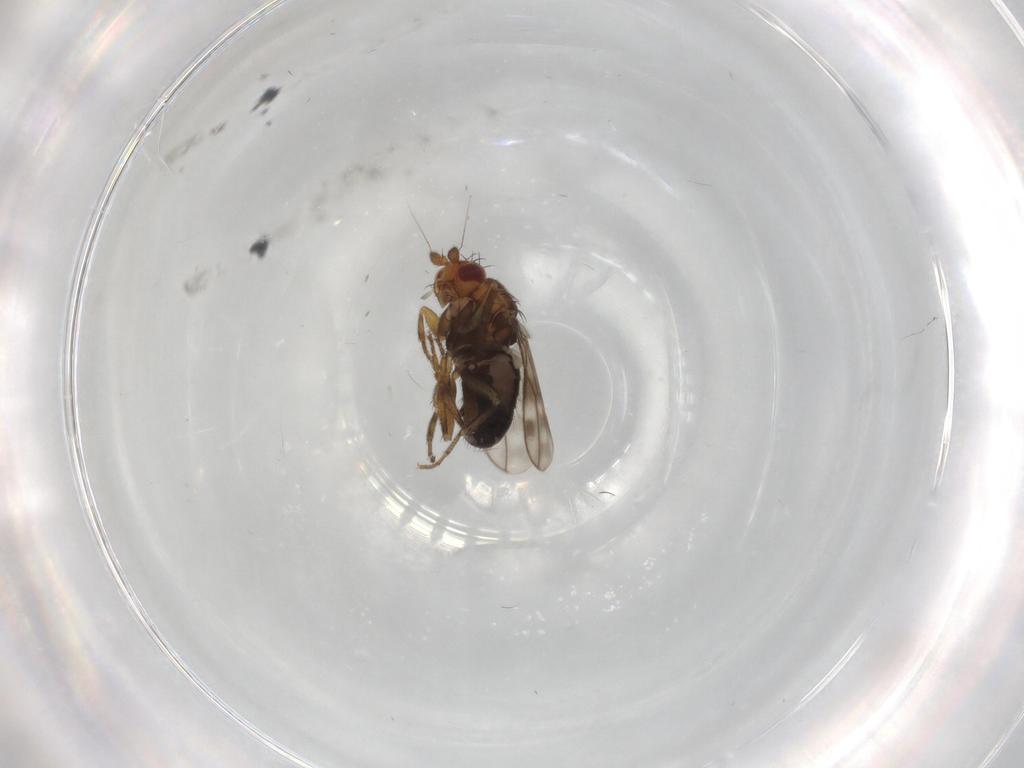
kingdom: Animalia
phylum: Arthropoda
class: Insecta
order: Diptera
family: Sphaeroceridae
